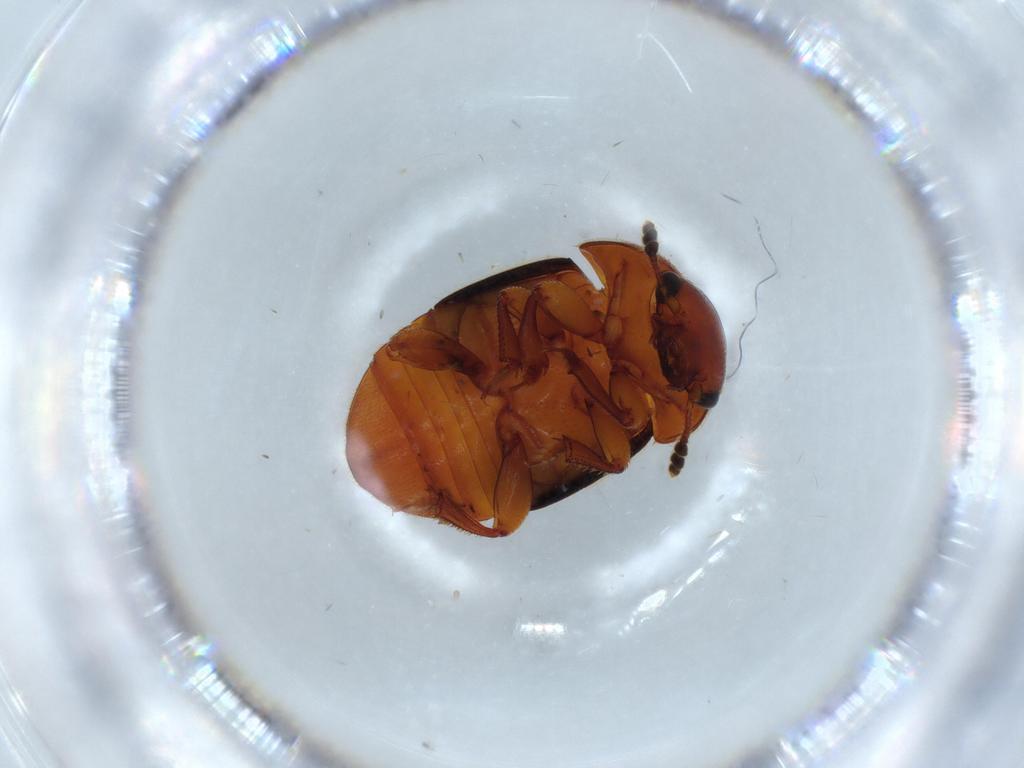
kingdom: Animalia
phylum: Arthropoda
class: Insecta
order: Coleoptera
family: Nitidulidae
